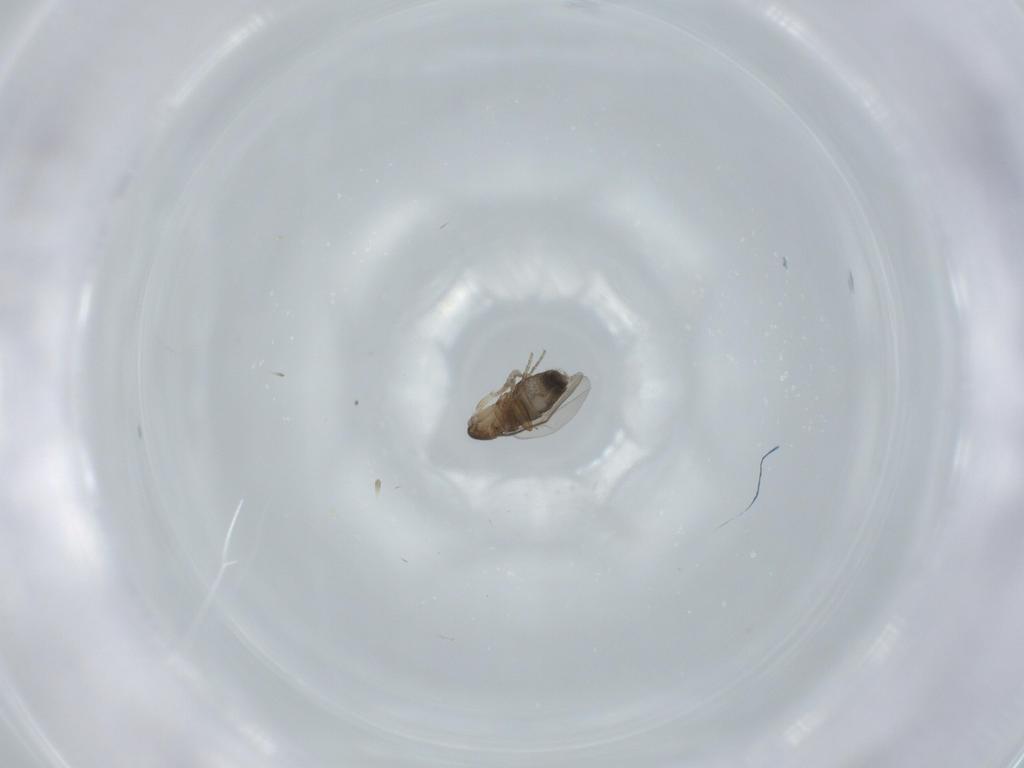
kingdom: Animalia
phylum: Arthropoda
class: Insecta
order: Diptera
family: Phoridae
